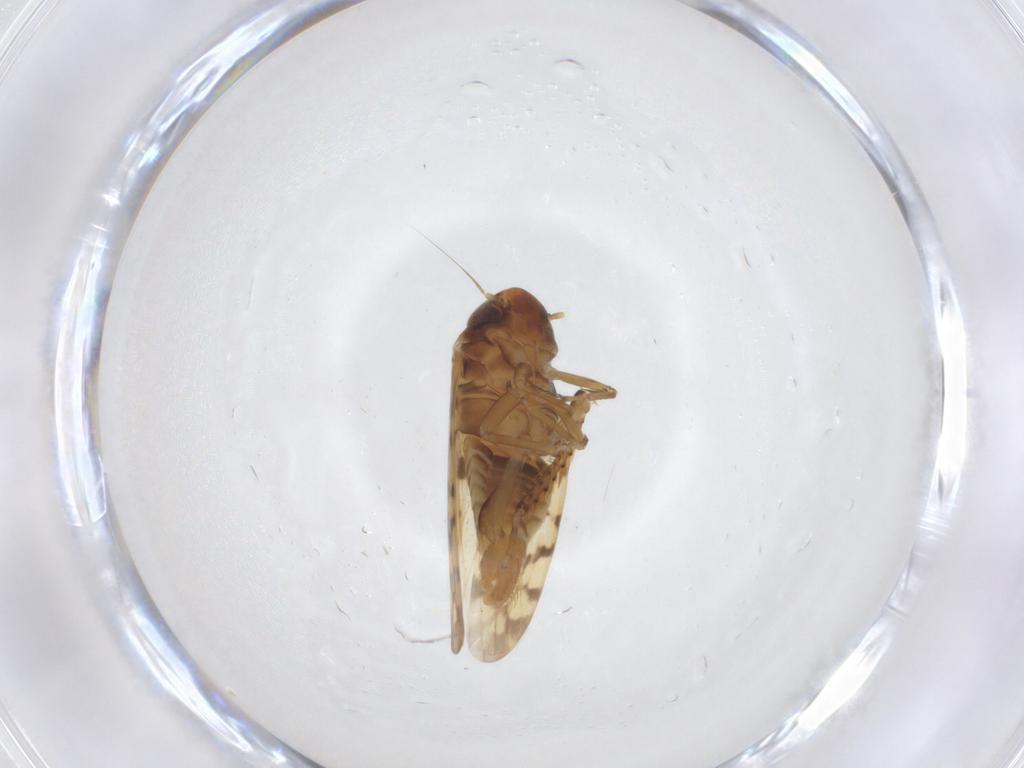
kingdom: Animalia
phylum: Arthropoda
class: Insecta
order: Hemiptera
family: Cicadellidae
